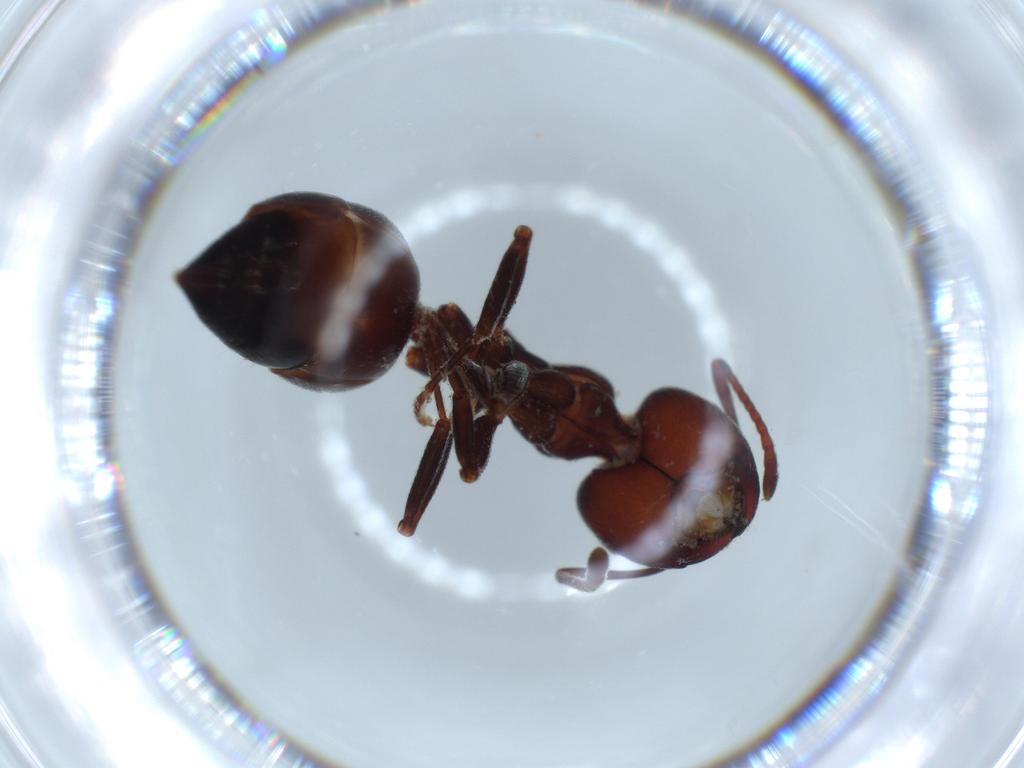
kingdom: Animalia
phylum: Arthropoda
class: Insecta
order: Hymenoptera
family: Formicidae
